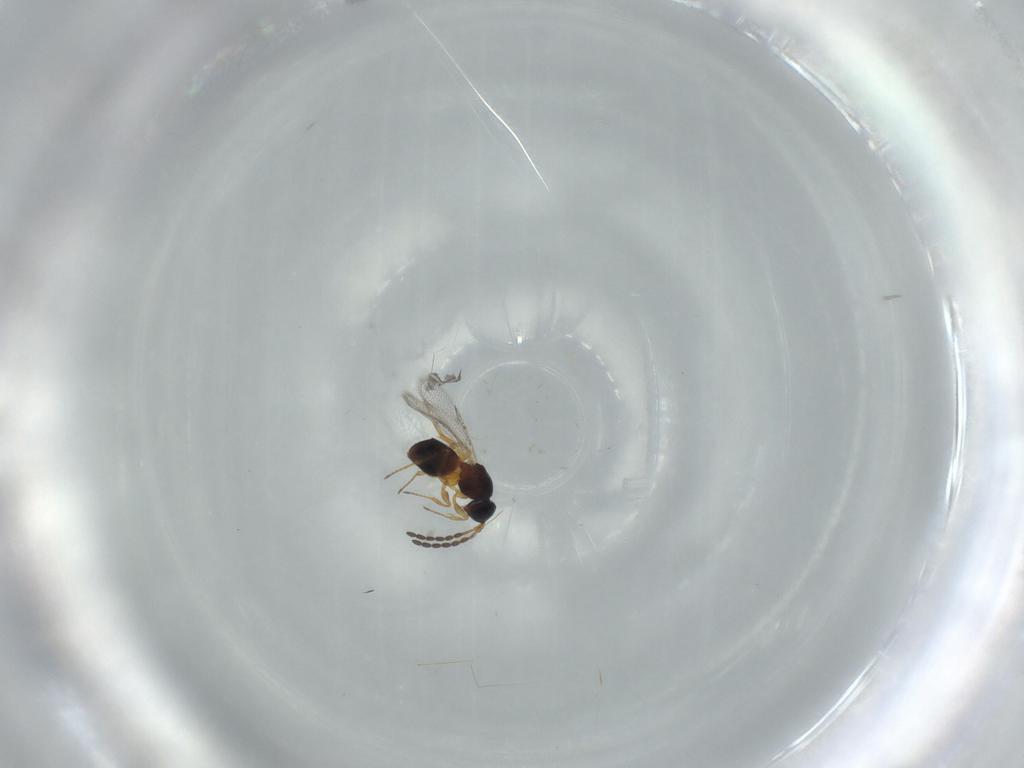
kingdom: Animalia
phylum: Arthropoda
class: Insecta
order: Hymenoptera
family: Figitidae
